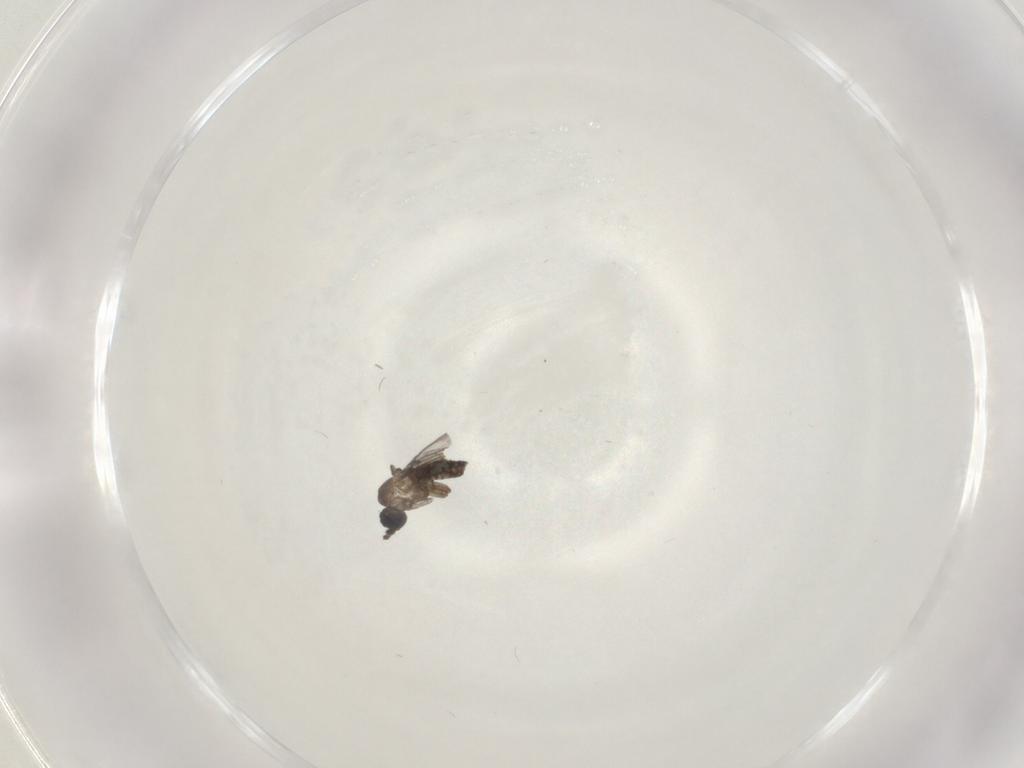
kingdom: Animalia
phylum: Arthropoda
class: Insecta
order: Diptera
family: Sciaridae
